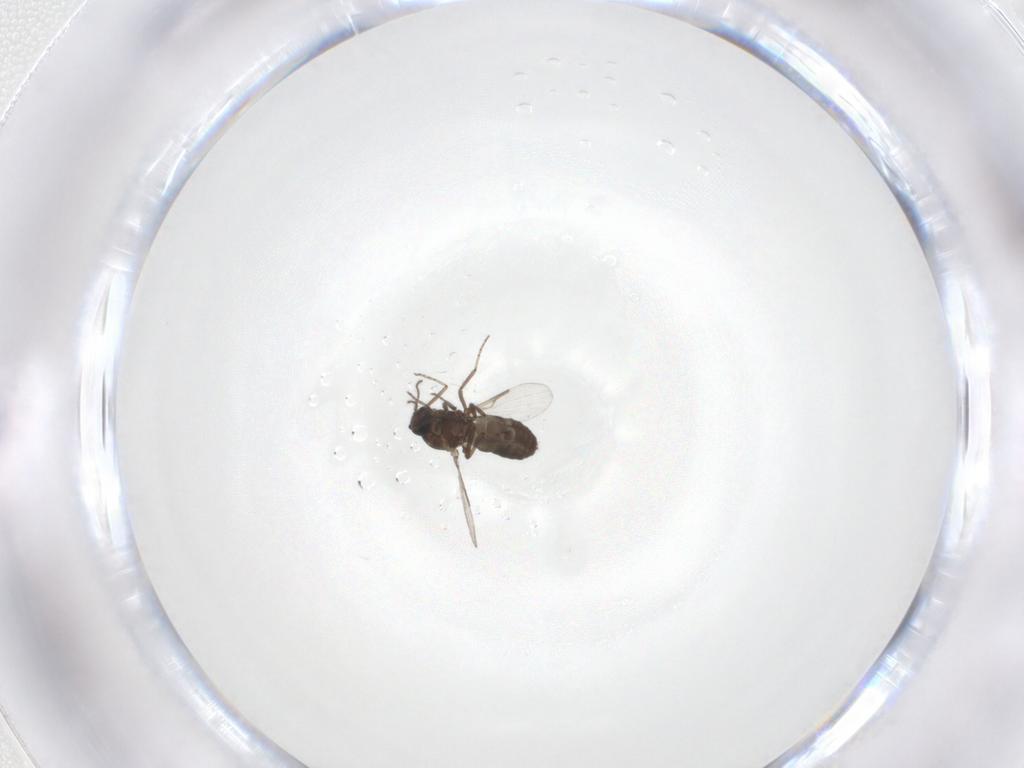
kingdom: Animalia
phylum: Arthropoda
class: Insecta
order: Diptera
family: Ceratopogonidae
